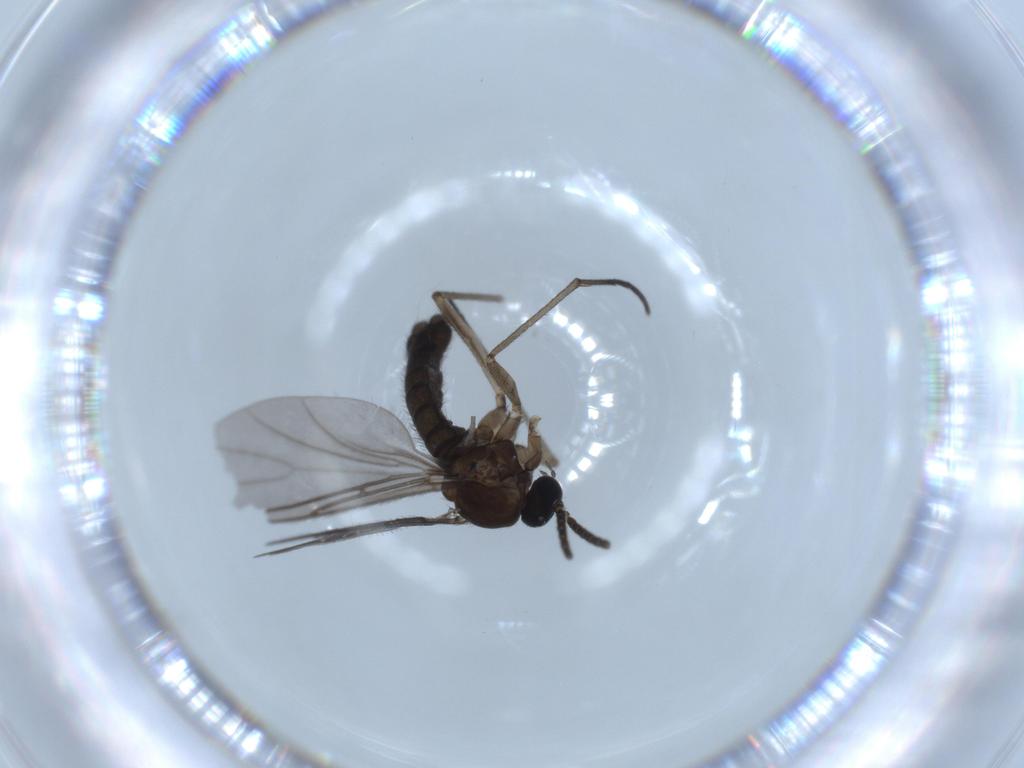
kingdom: Animalia
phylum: Arthropoda
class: Insecta
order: Diptera
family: Sciaridae
